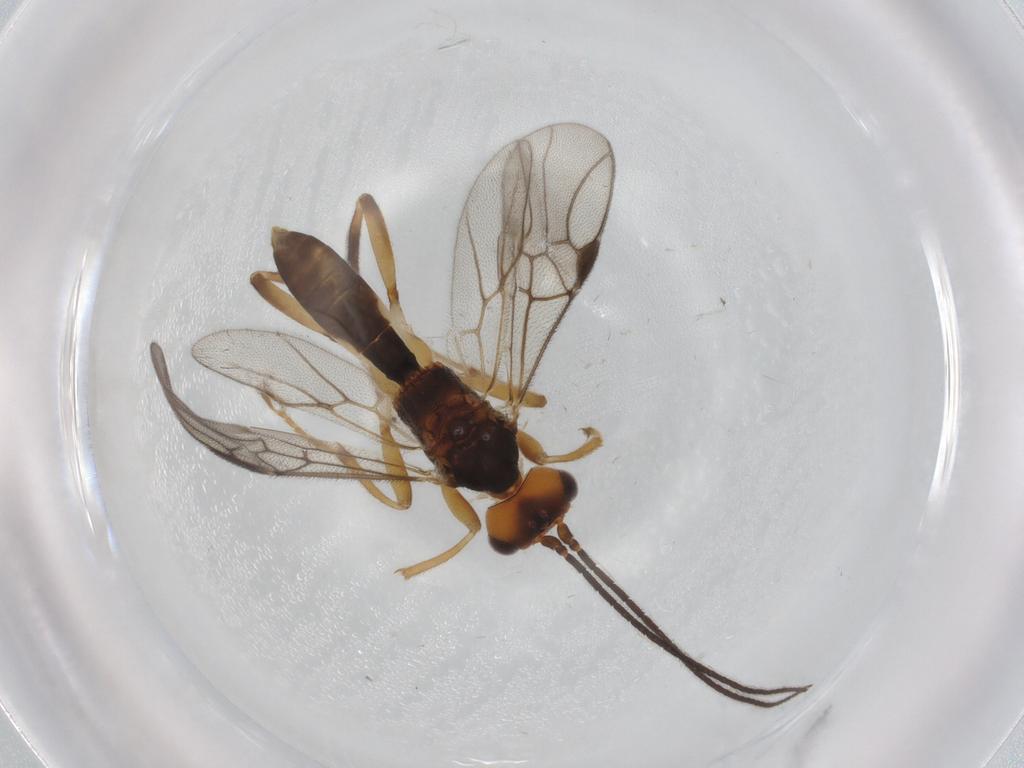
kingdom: Animalia
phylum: Arthropoda
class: Insecta
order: Hymenoptera
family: Braconidae
